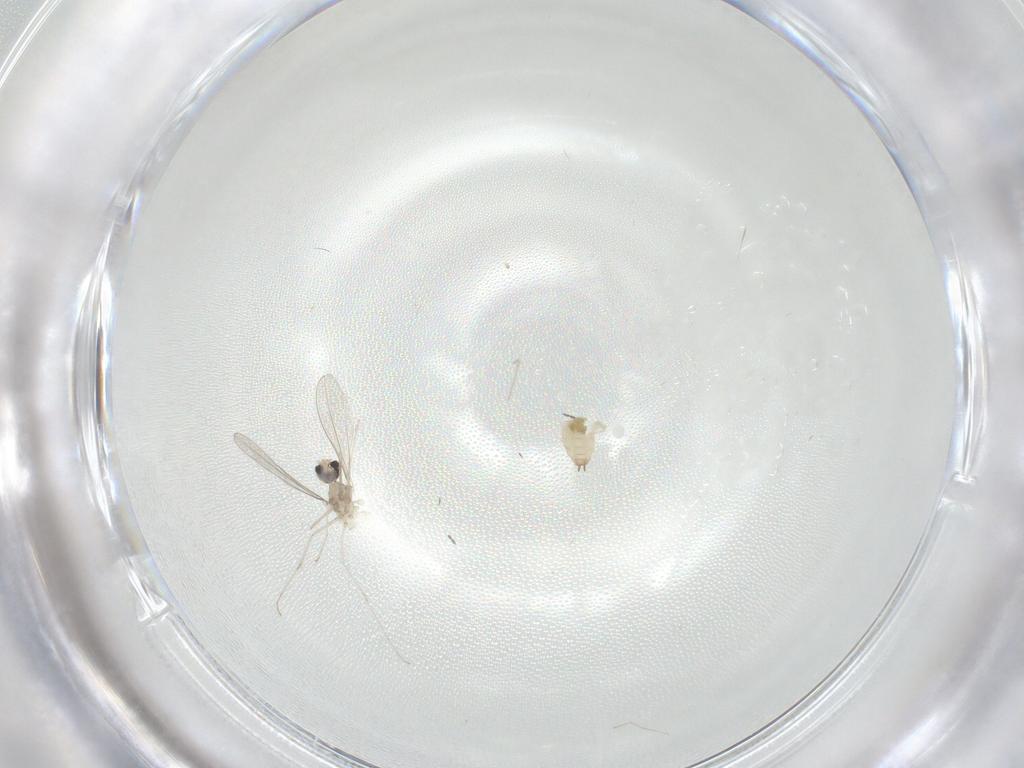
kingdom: Animalia
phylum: Arthropoda
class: Insecta
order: Diptera
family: Cecidomyiidae
